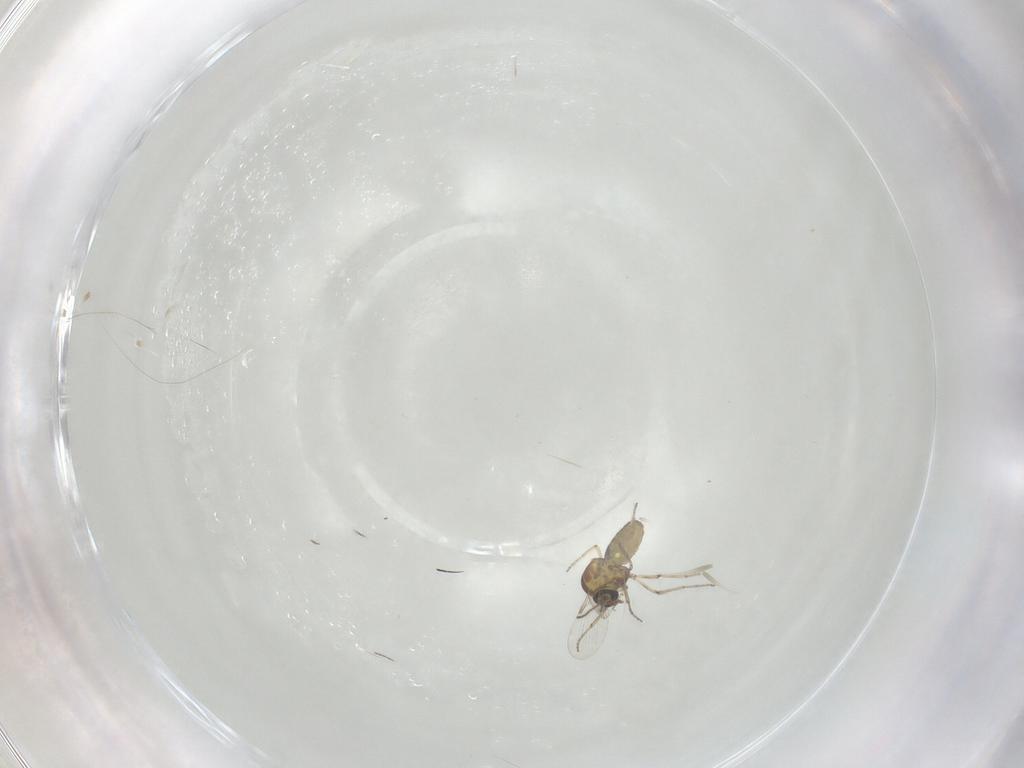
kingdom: Animalia
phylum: Arthropoda
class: Insecta
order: Diptera
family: Ceratopogonidae
